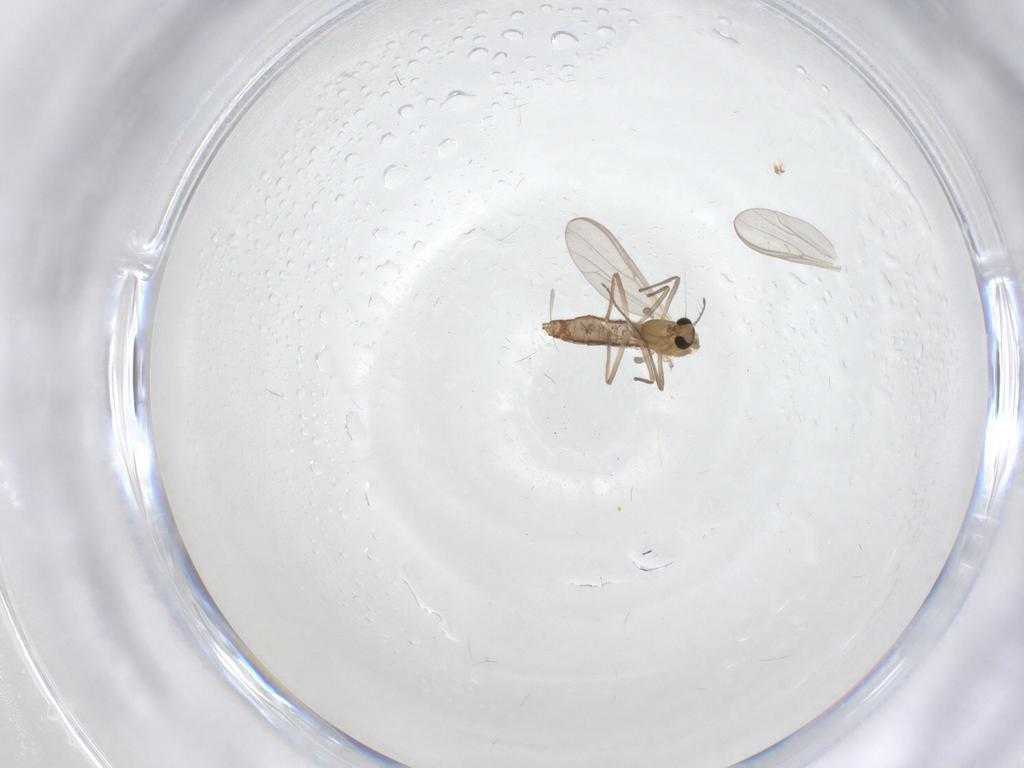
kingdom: Animalia
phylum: Arthropoda
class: Insecta
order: Diptera
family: Chironomidae
